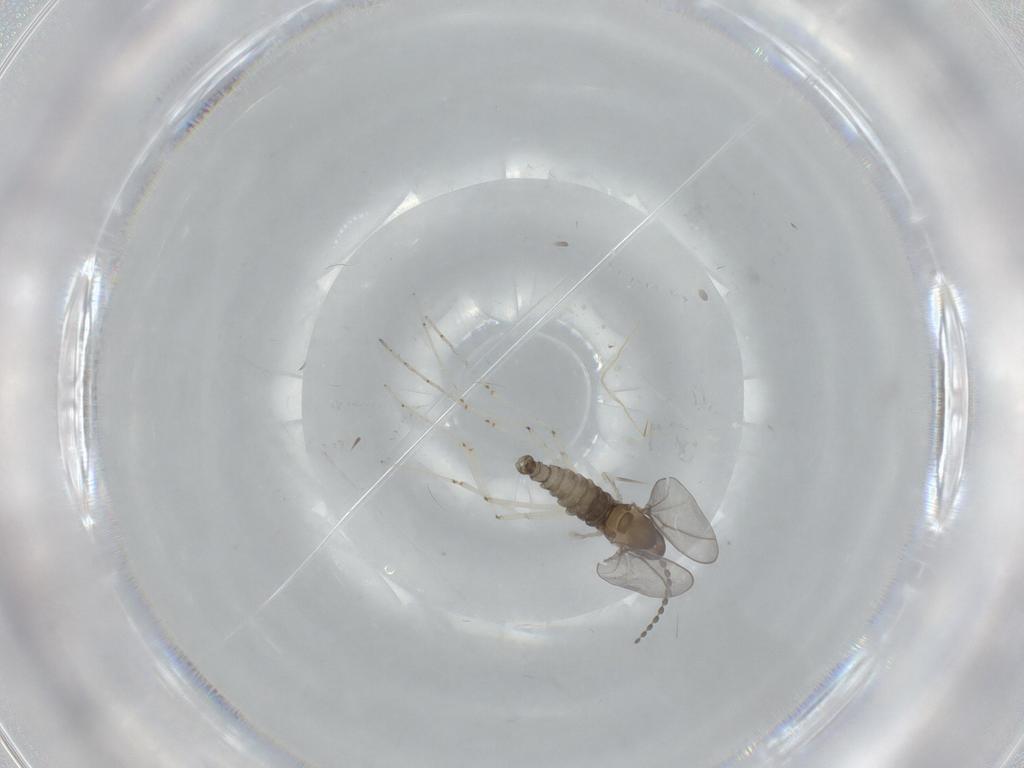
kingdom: Animalia
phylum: Arthropoda
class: Insecta
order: Diptera
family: Cecidomyiidae
